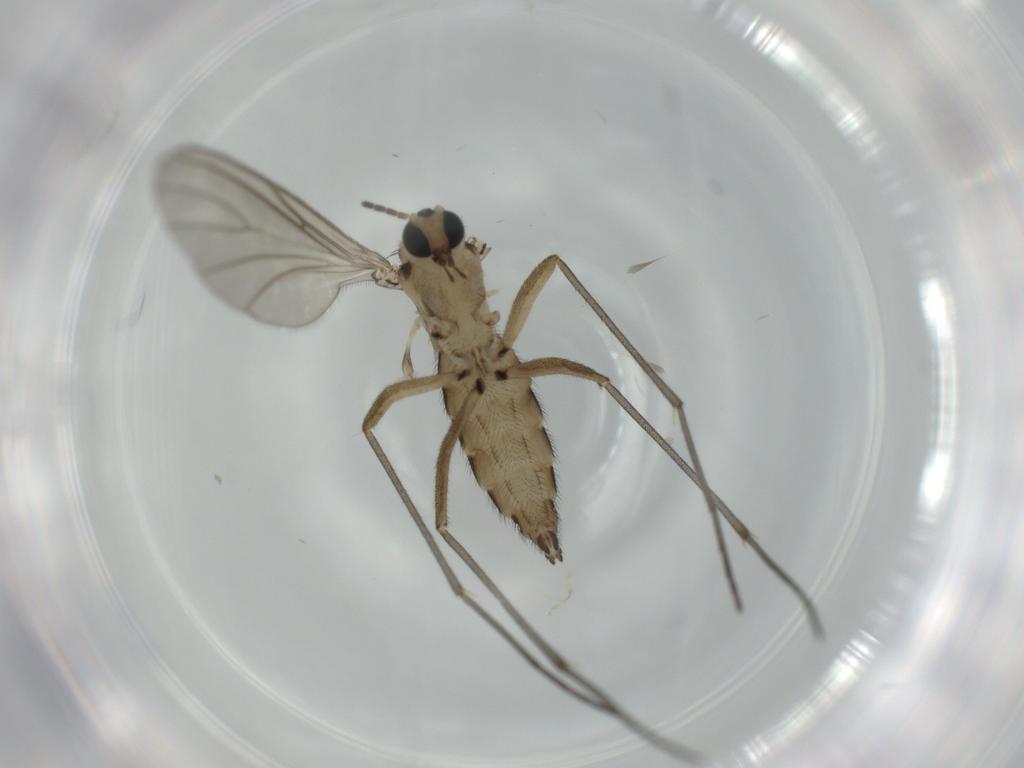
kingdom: Animalia
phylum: Arthropoda
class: Insecta
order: Diptera
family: Sciaridae
